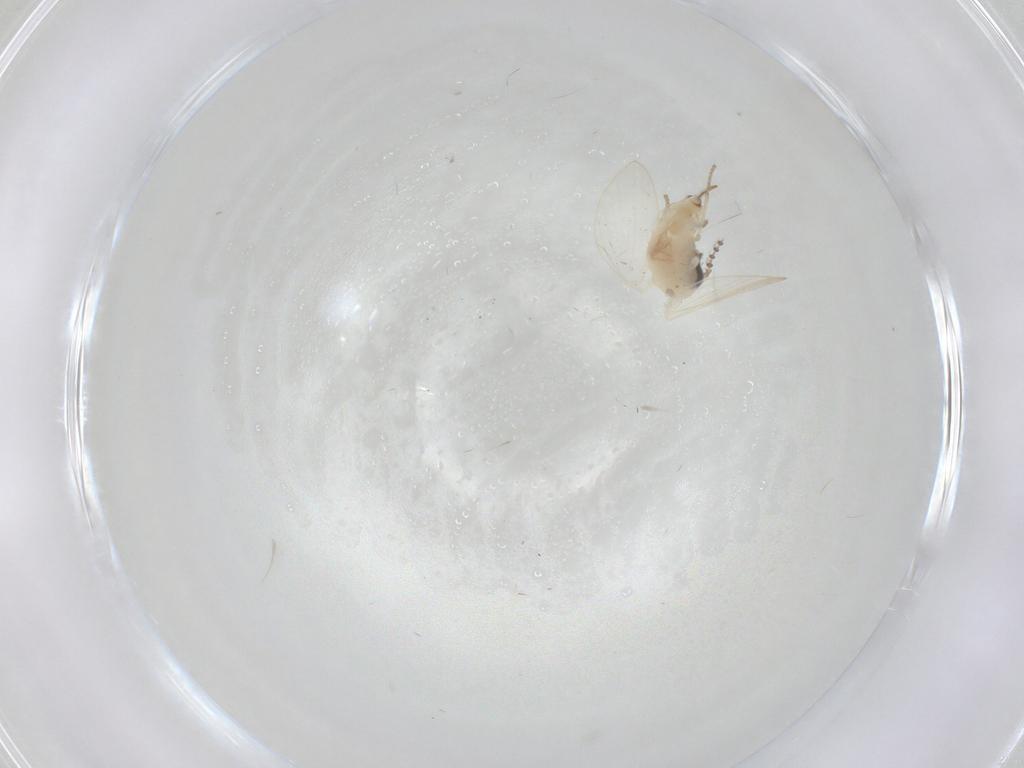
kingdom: Animalia
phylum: Arthropoda
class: Insecta
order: Diptera
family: Psychodidae
